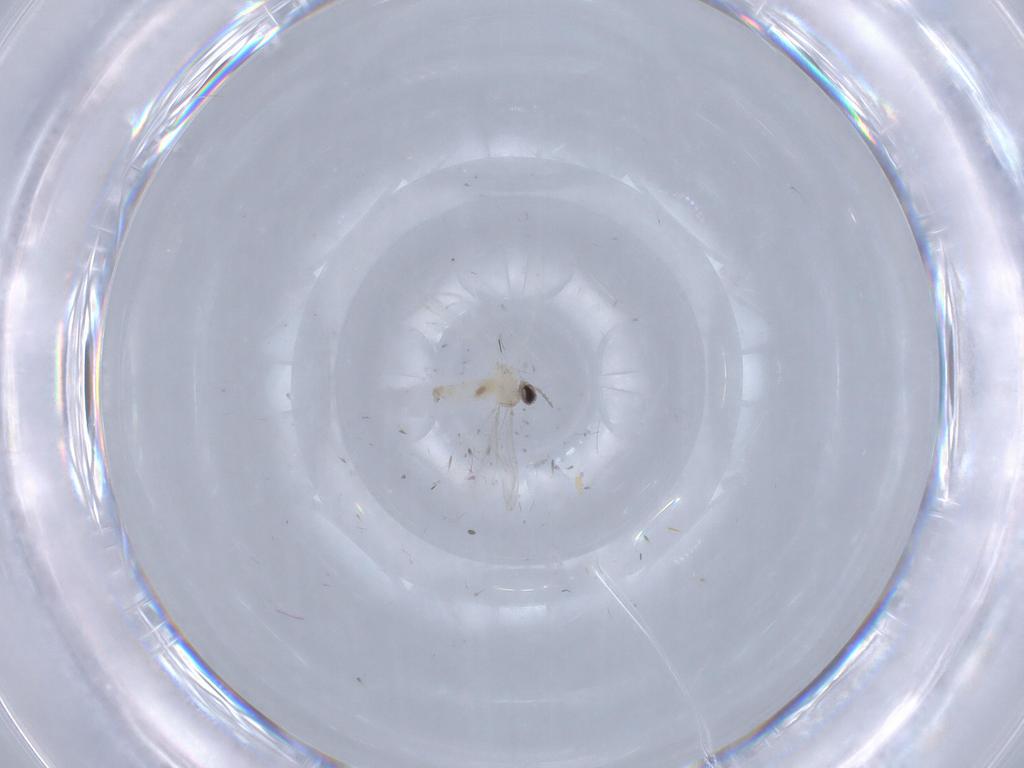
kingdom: Animalia
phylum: Arthropoda
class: Insecta
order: Diptera
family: Cecidomyiidae
